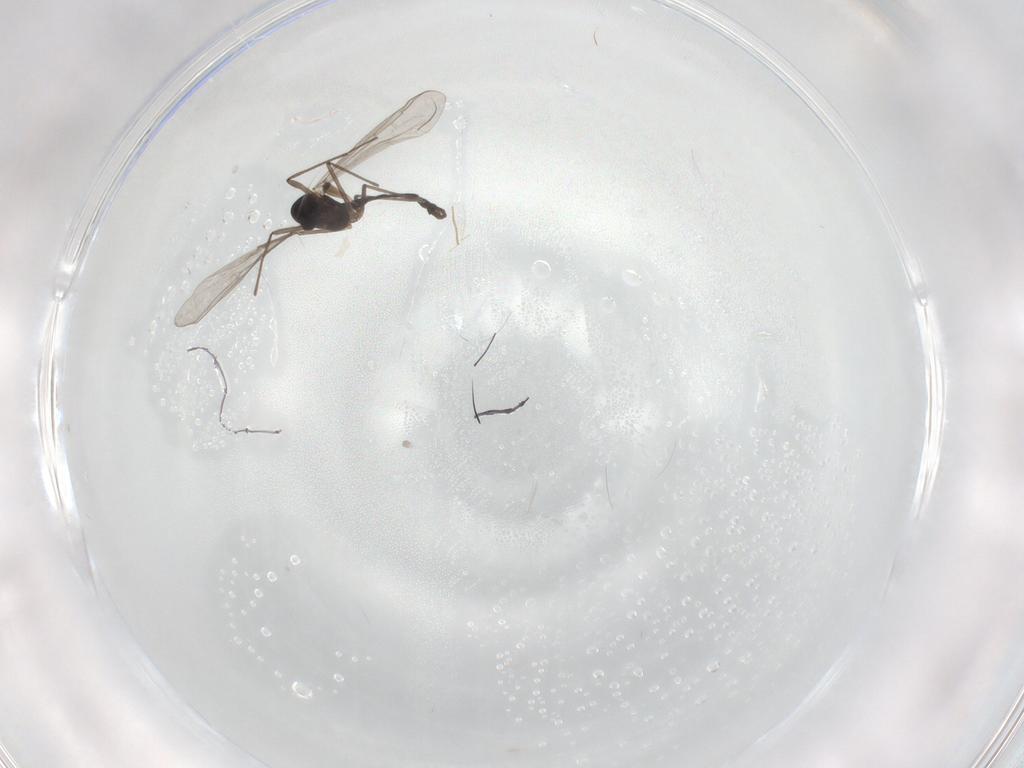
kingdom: Animalia
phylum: Arthropoda
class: Insecta
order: Diptera
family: Chironomidae
